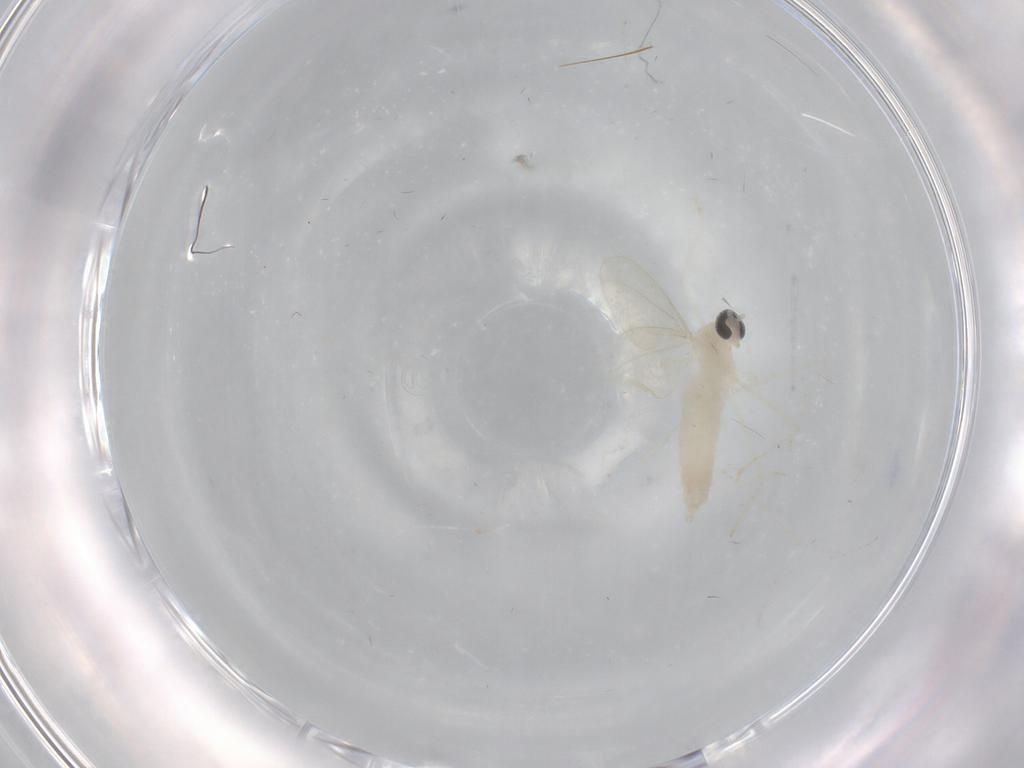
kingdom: Animalia
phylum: Arthropoda
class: Insecta
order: Diptera
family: Cecidomyiidae
